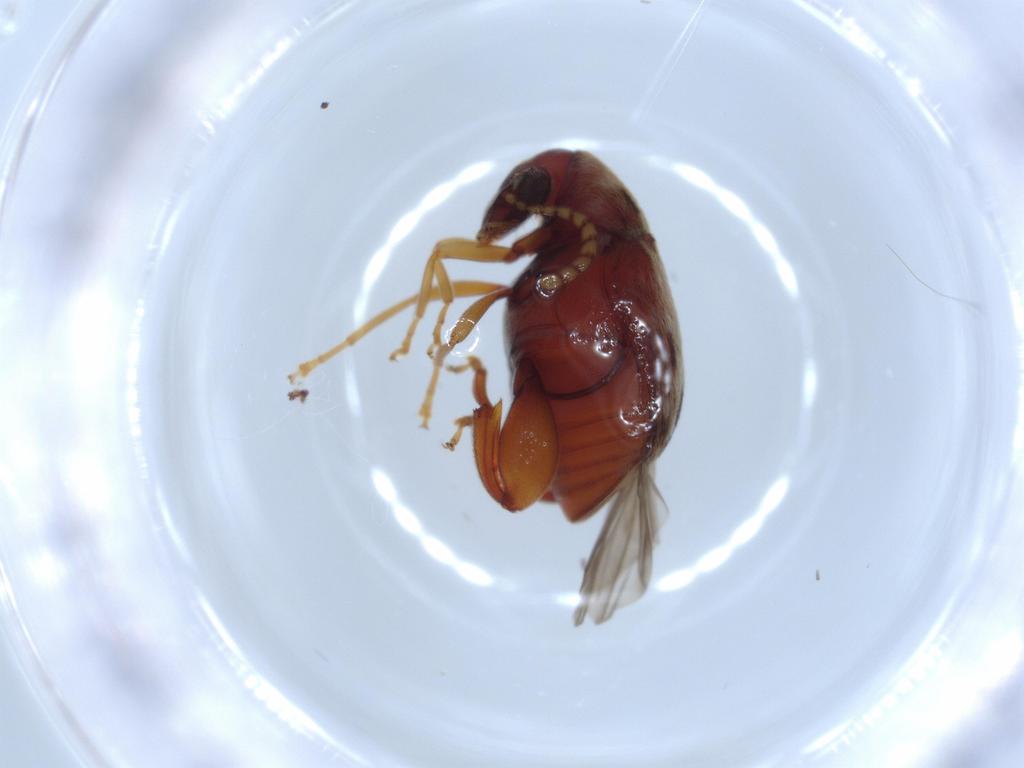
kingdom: Animalia
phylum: Arthropoda
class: Insecta
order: Coleoptera
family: Chrysomelidae
